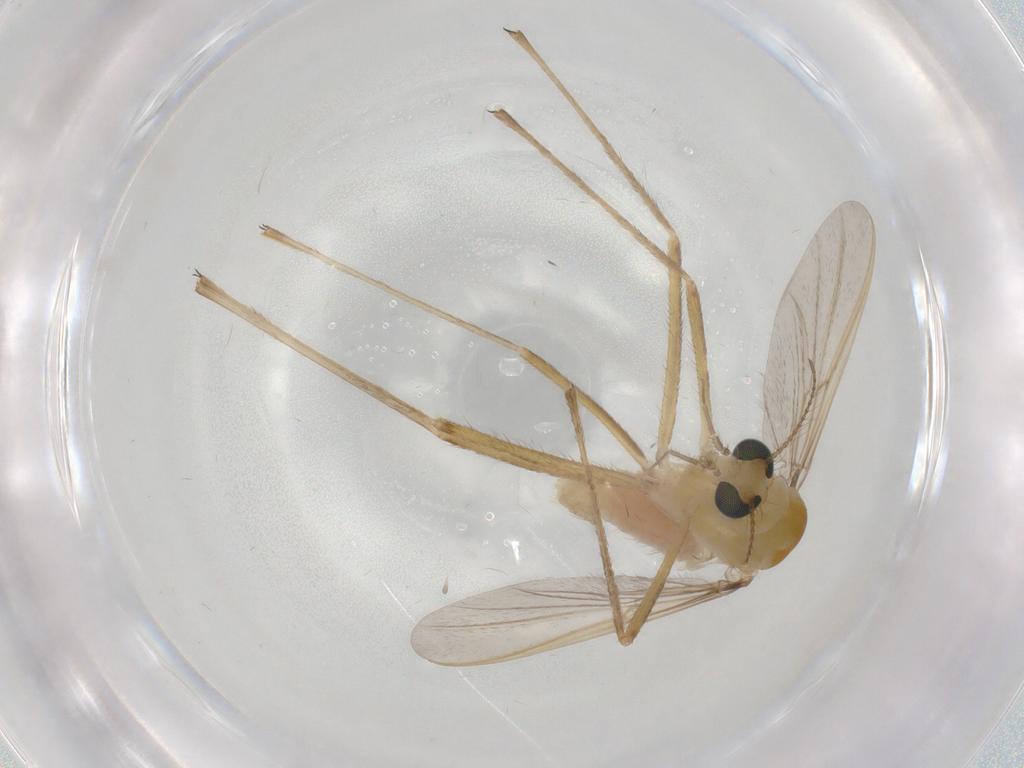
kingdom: Animalia
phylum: Arthropoda
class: Insecta
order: Diptera
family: Chironomidae
